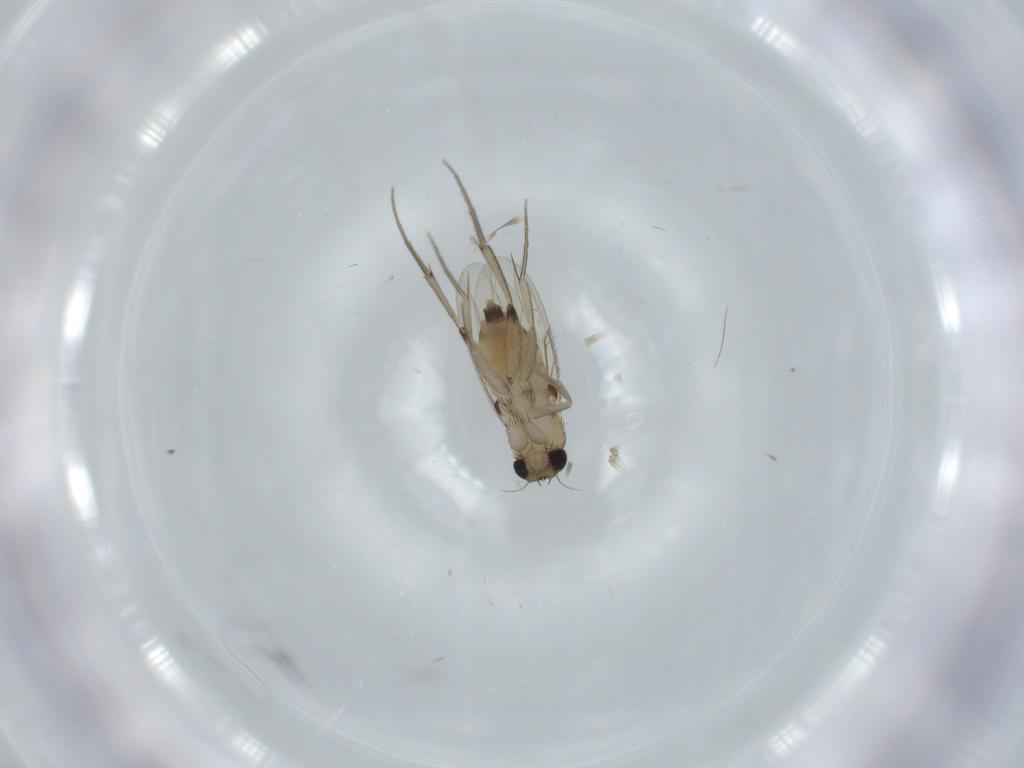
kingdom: Animalia
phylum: Arthropoda
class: Insecta
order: Diptera
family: Phoridae
